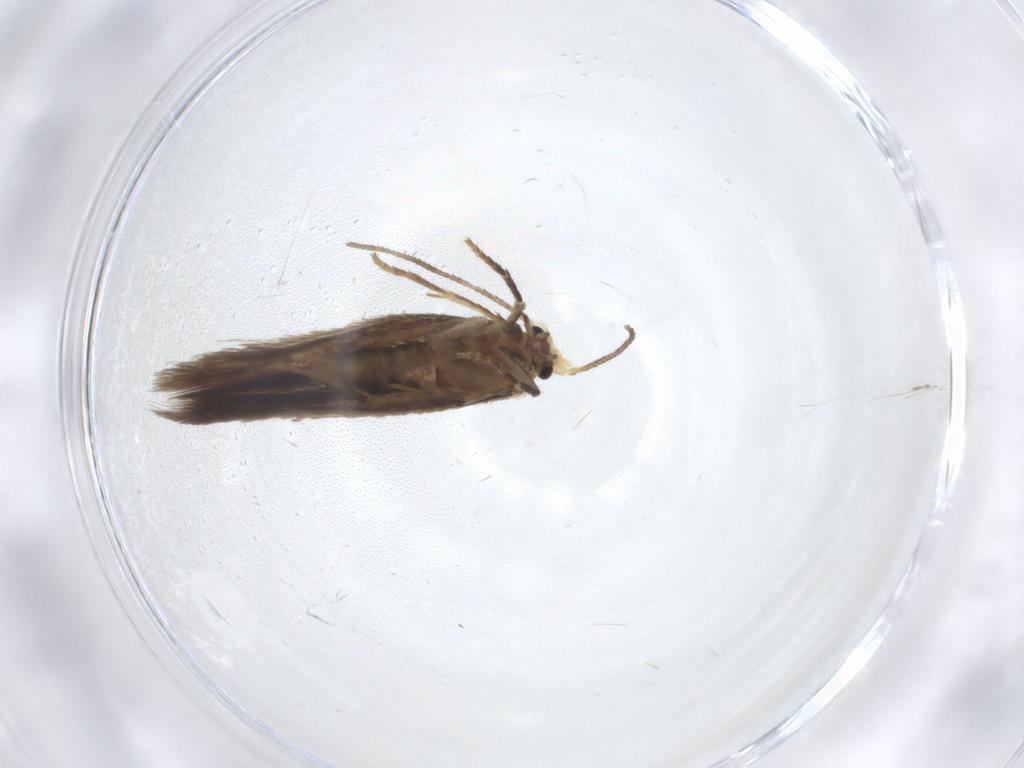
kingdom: Animalia
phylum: Arthropoda
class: Insecta
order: Lepidoptera
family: Nepticulidae
